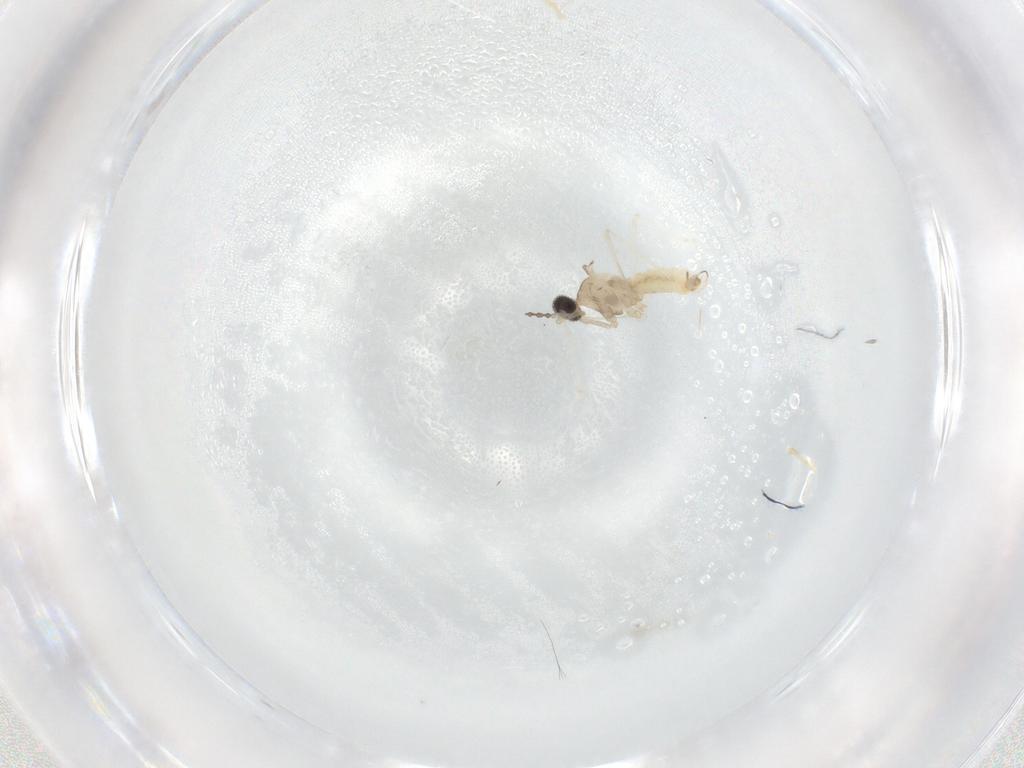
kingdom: Animalia
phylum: Arthropoda
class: Insecta
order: Diptera
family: Cecidomyiidae
